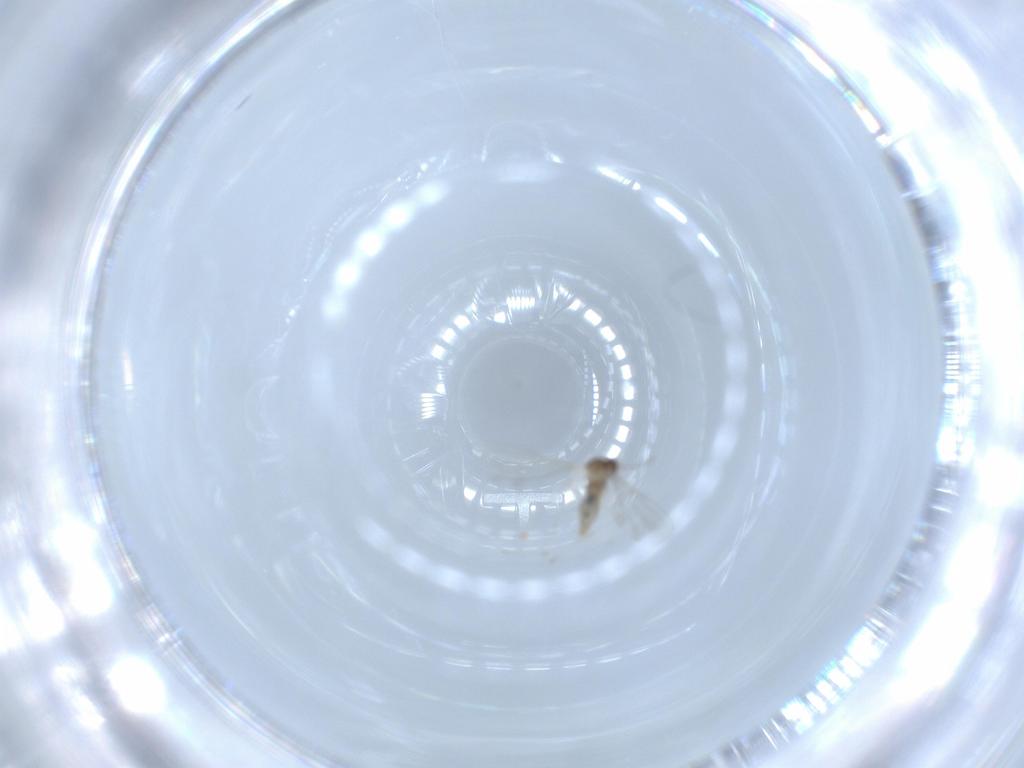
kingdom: Animalia
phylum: Arthropoda
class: Insecta
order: Diptera
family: Cecidomyiidae
